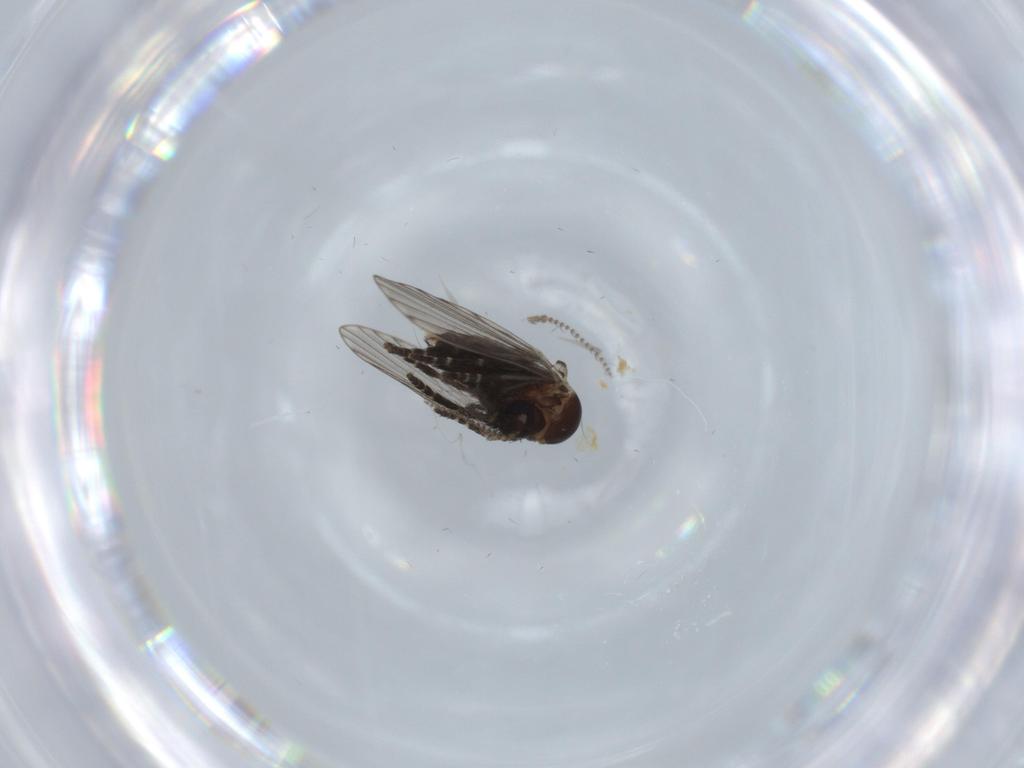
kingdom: Animalia
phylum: Arthropoda
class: Insecta
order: Diptera
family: Psychodidae
